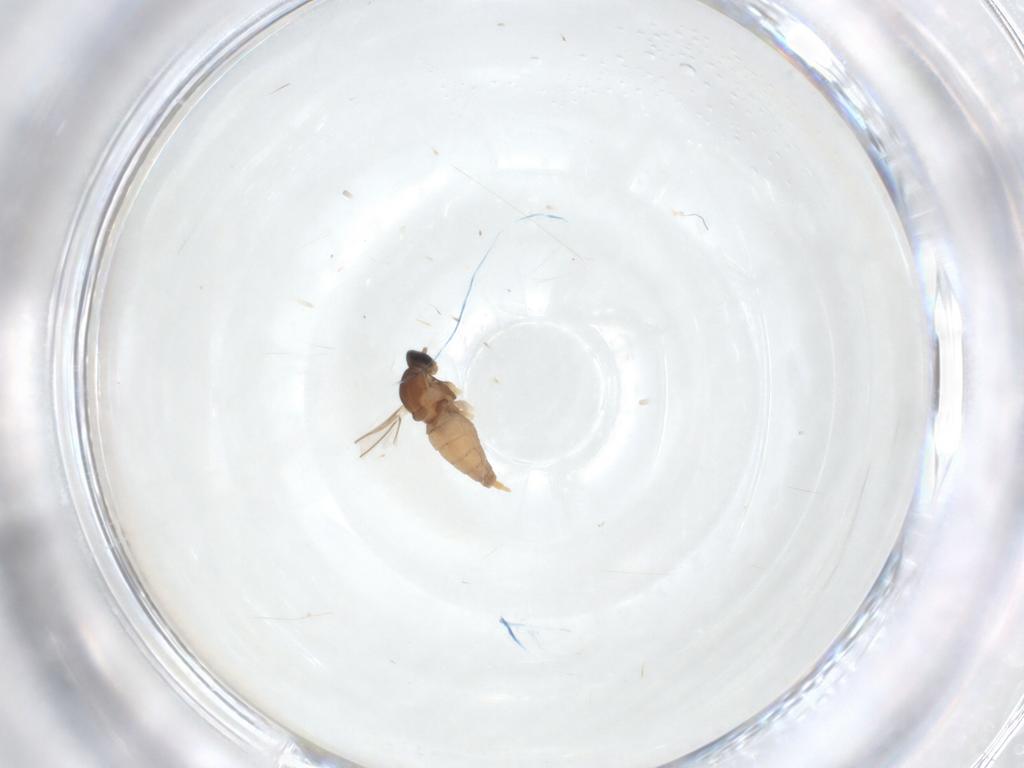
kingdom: Animalia
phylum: Arthropoda
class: Insecta
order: Diptera
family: Cecidomyiidae
